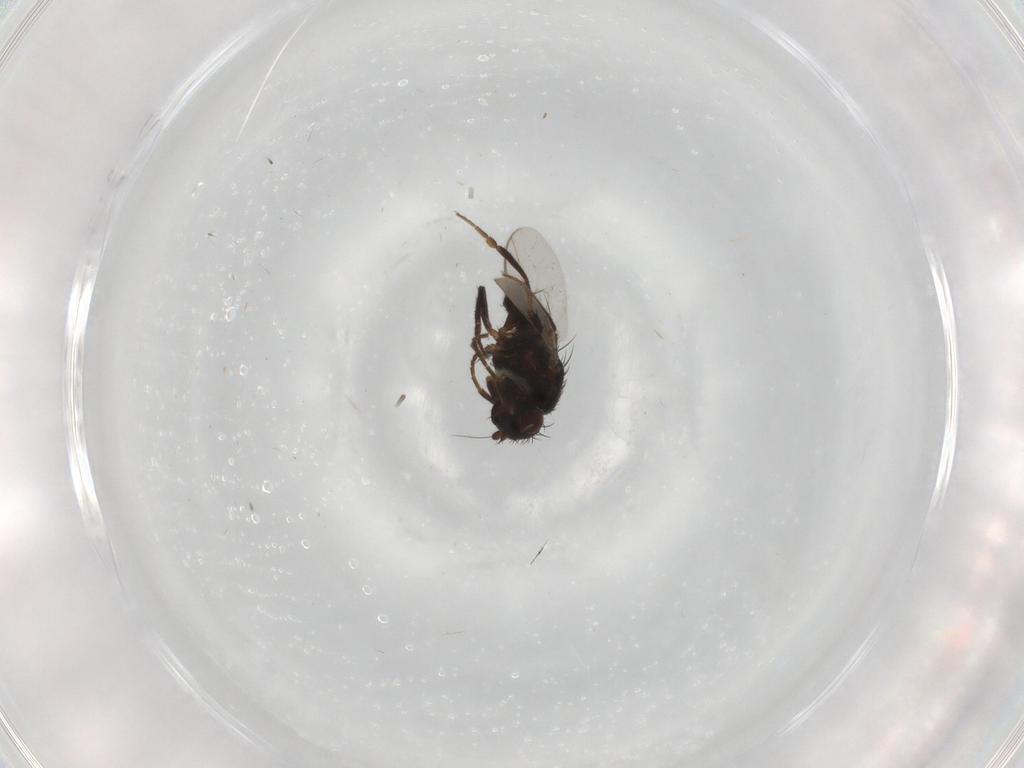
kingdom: Animalia
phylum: Arthropoda
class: Insecta
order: Diptera
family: Sphaeroceridae
